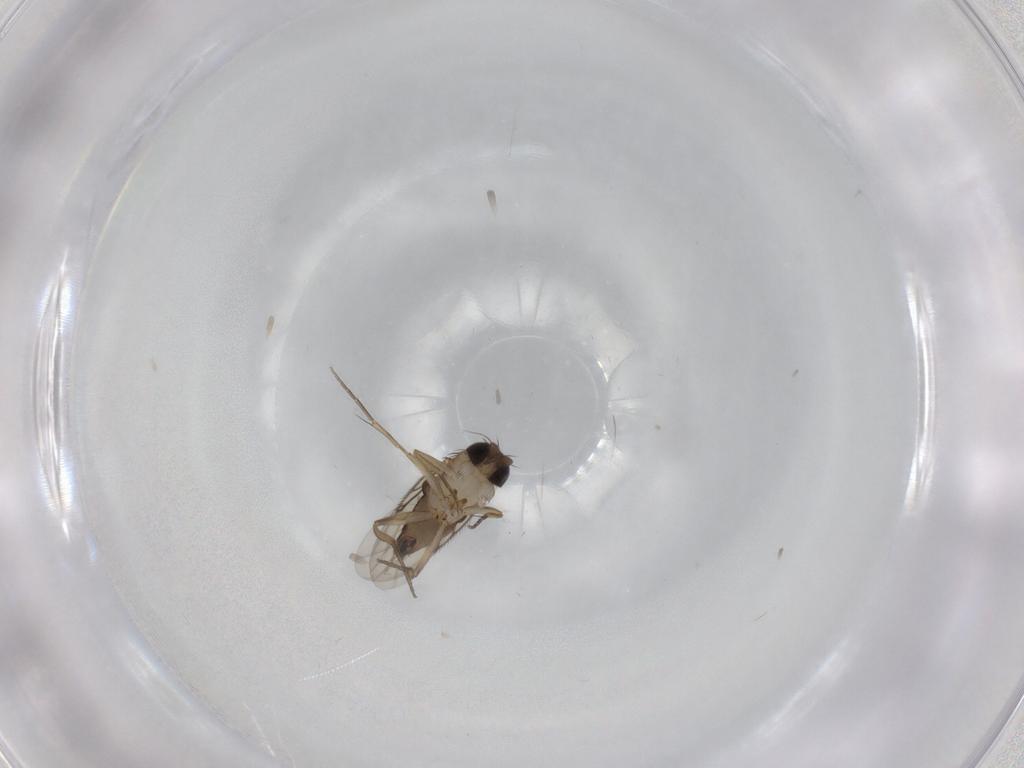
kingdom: Animalia
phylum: Arthropoda
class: Insecta
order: Diptera
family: Phoridae
